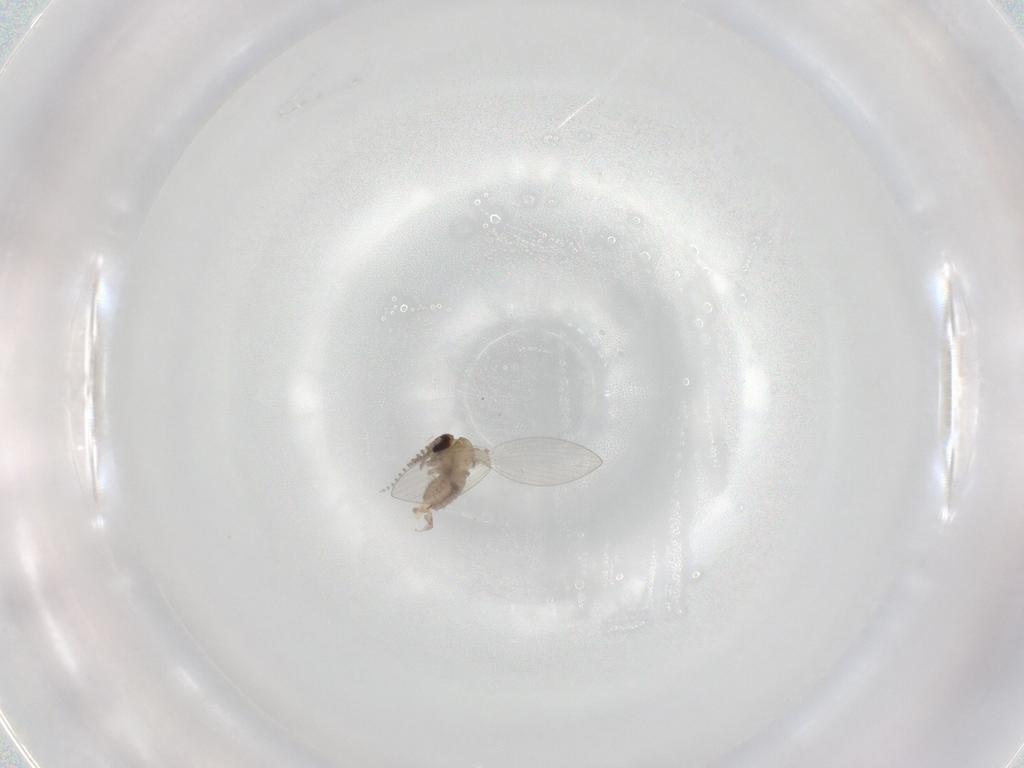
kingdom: Animalia
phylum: Arthropoda
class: Insecta
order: Diptera
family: Psychodidae
